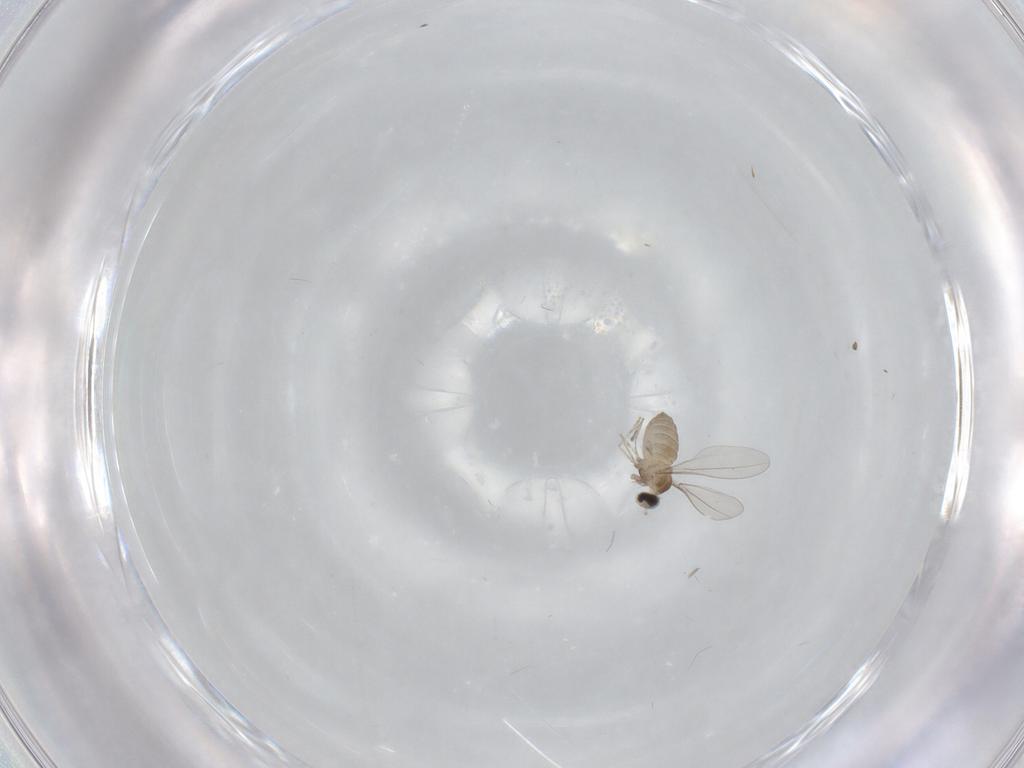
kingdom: Animalia
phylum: Arthropoda
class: Insecta
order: Diptera
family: Cecidomyiidae
